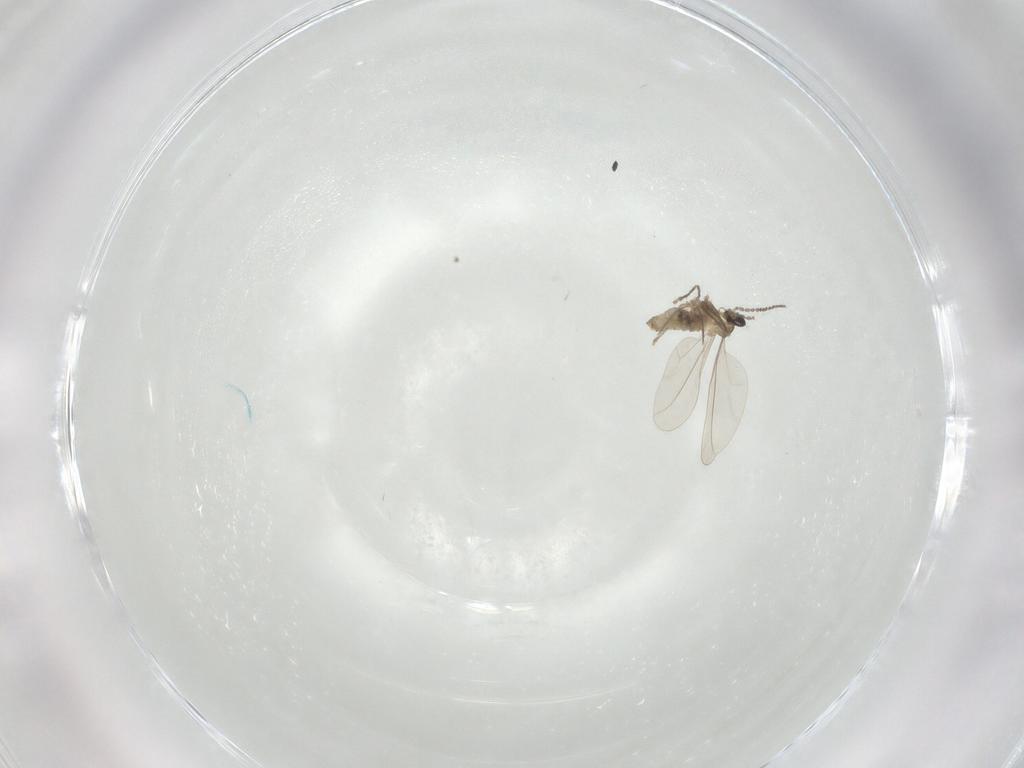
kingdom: Animalia
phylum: Arthropoda
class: Insecta
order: Diptera
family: Cecidomyiidae
